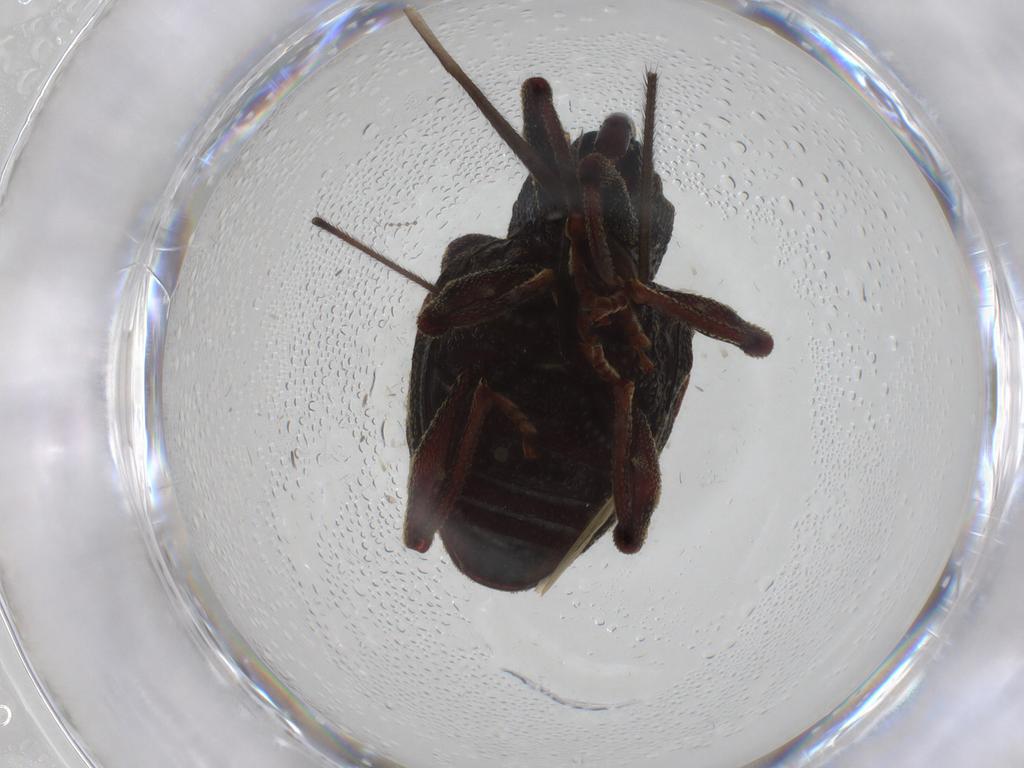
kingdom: Animalia
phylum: Arthropoda
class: Insecta
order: Coleoptera
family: Curculionidae
